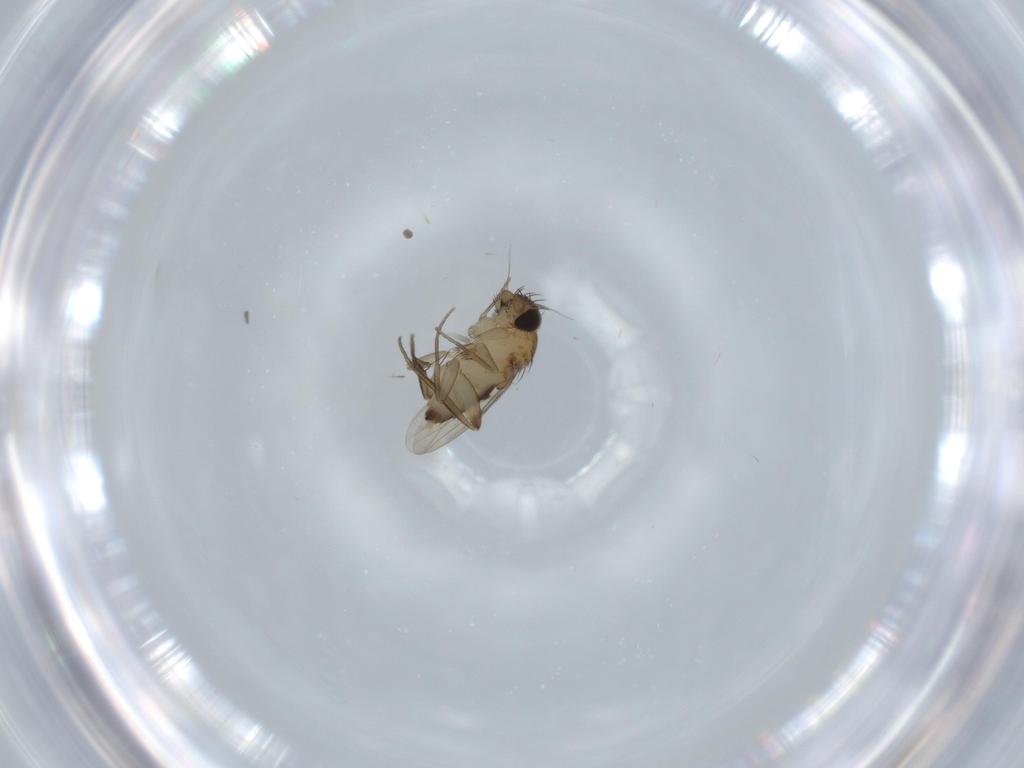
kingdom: Animalia
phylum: Arthropoda
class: Insecta
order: Diptera
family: Phoridae
